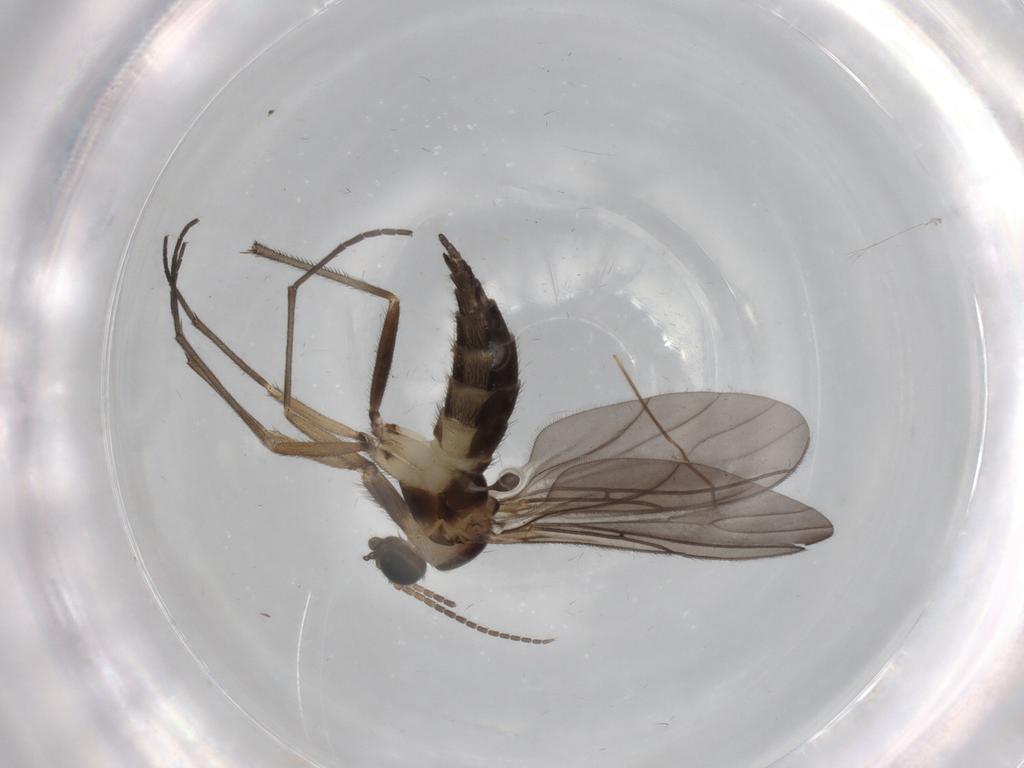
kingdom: Animalia
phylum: Arthropoda
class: Insecta
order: Diptera
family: Sciaridae
